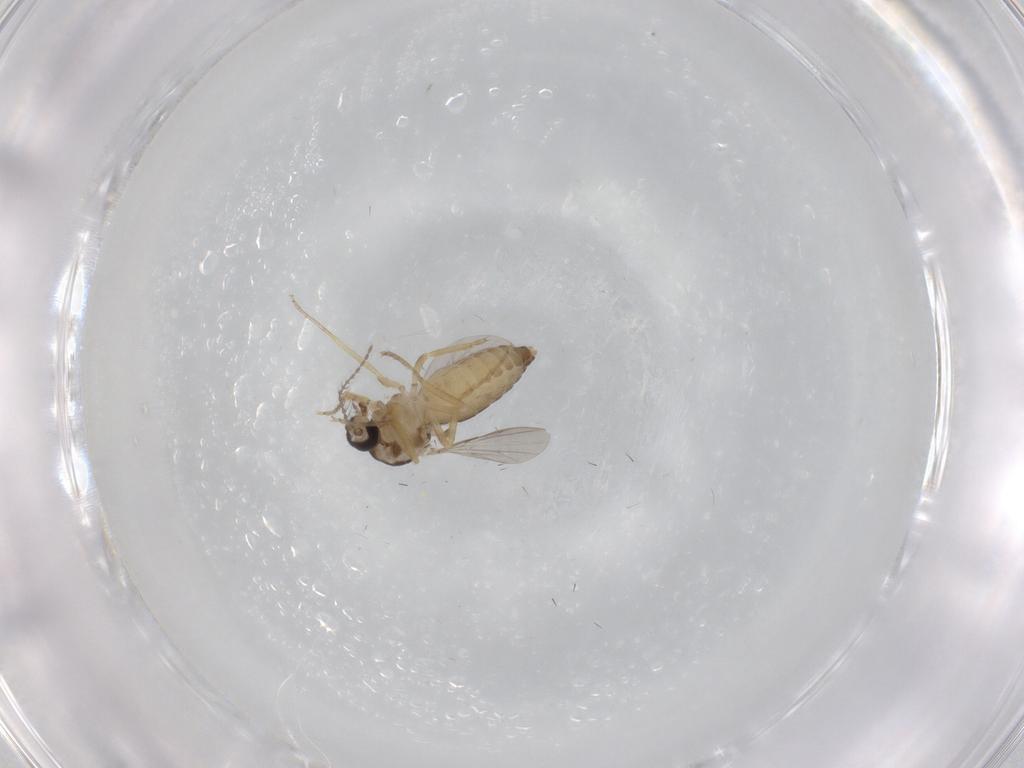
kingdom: Animalia
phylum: Arthropoda
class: Insecta
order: Diptera
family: Ceratopogonidae
